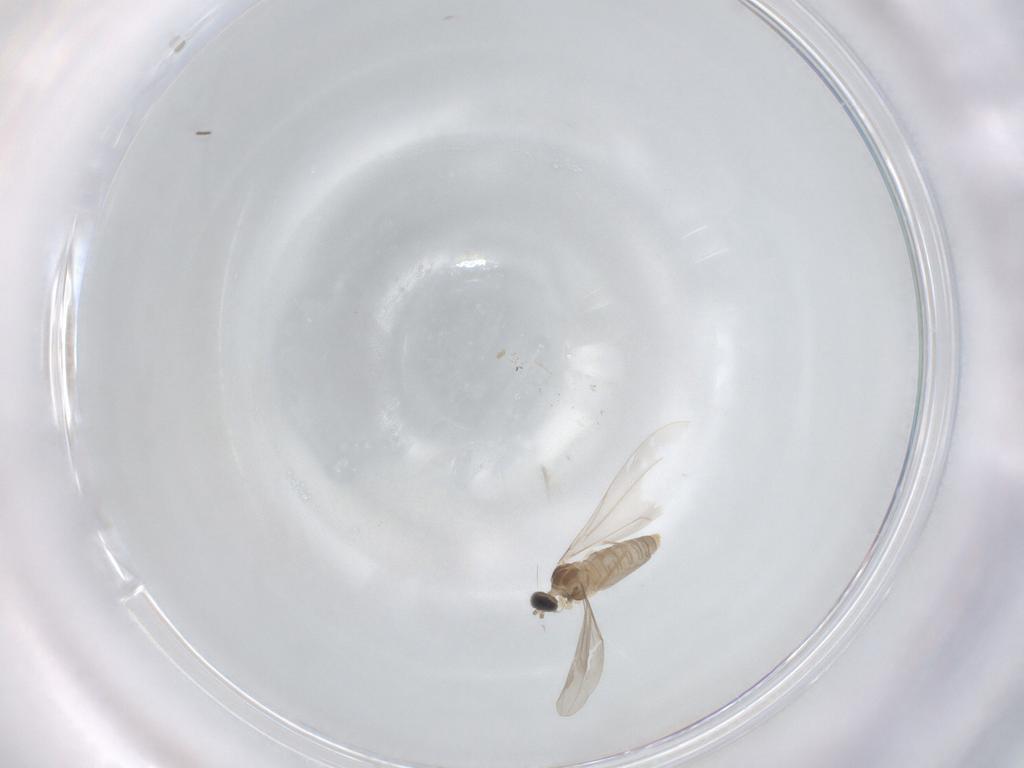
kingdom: Animalia
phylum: Arthropoda
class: Insecta
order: Diptera
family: Cecidomyiidae
